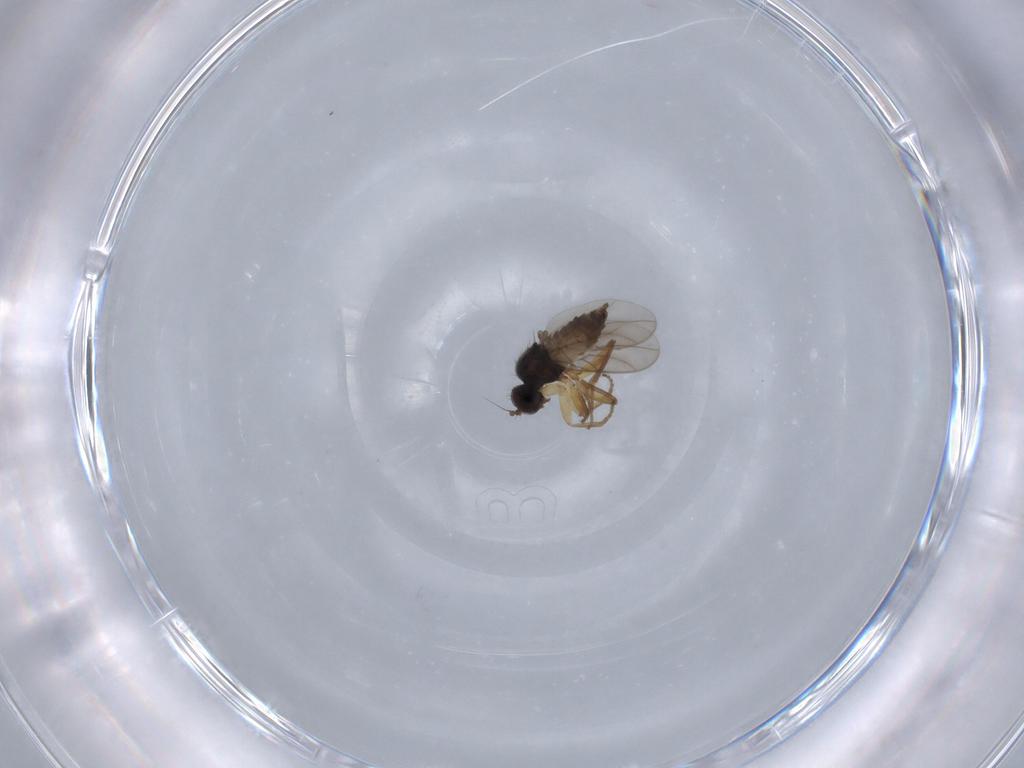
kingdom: Animalia
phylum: Arthropoda
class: Insecta
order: Diptera
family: Hybotidae
